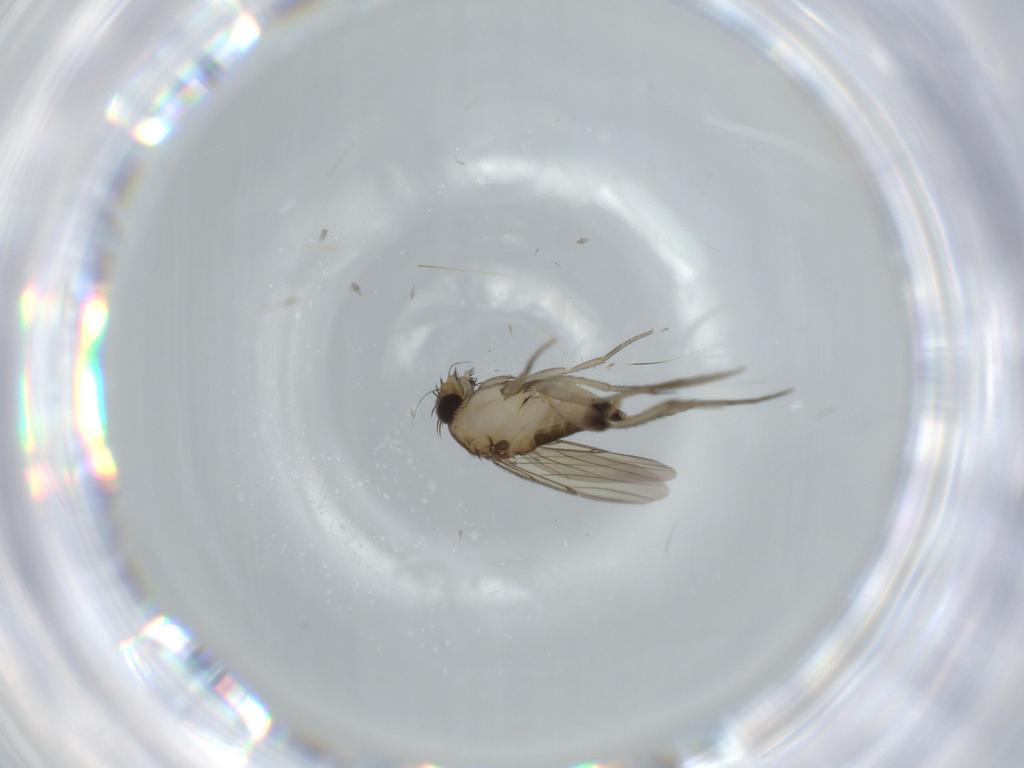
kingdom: Animalia
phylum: Arthropoda
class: Insecta
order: Diptera
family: Phoridae
